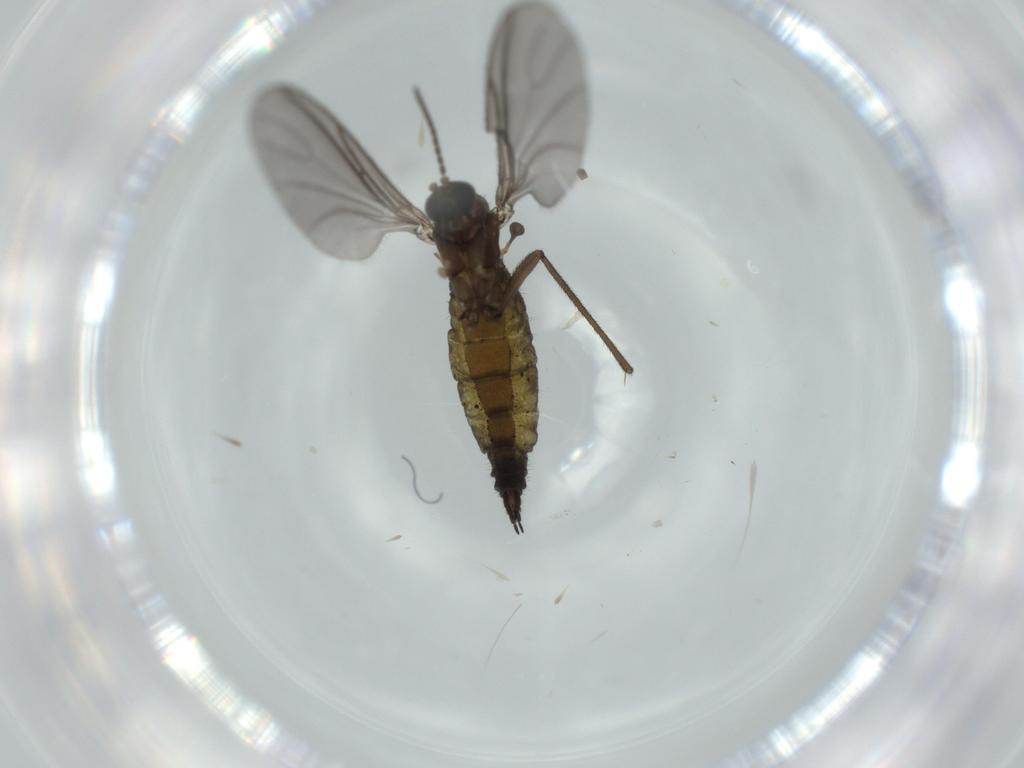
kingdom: Animalia
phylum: Arthropoda
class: Insecta
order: Diptera
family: Sciaridae
